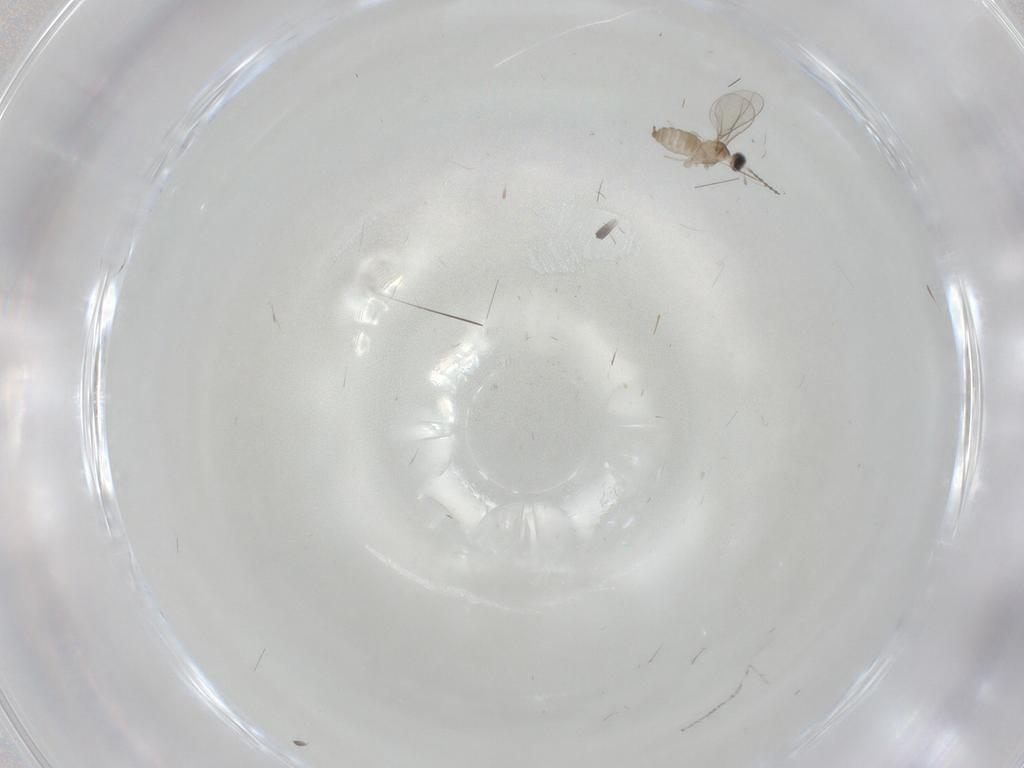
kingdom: Animalia
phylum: Arthropoda
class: Insecta
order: Diptera
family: Cecidomyiidae
